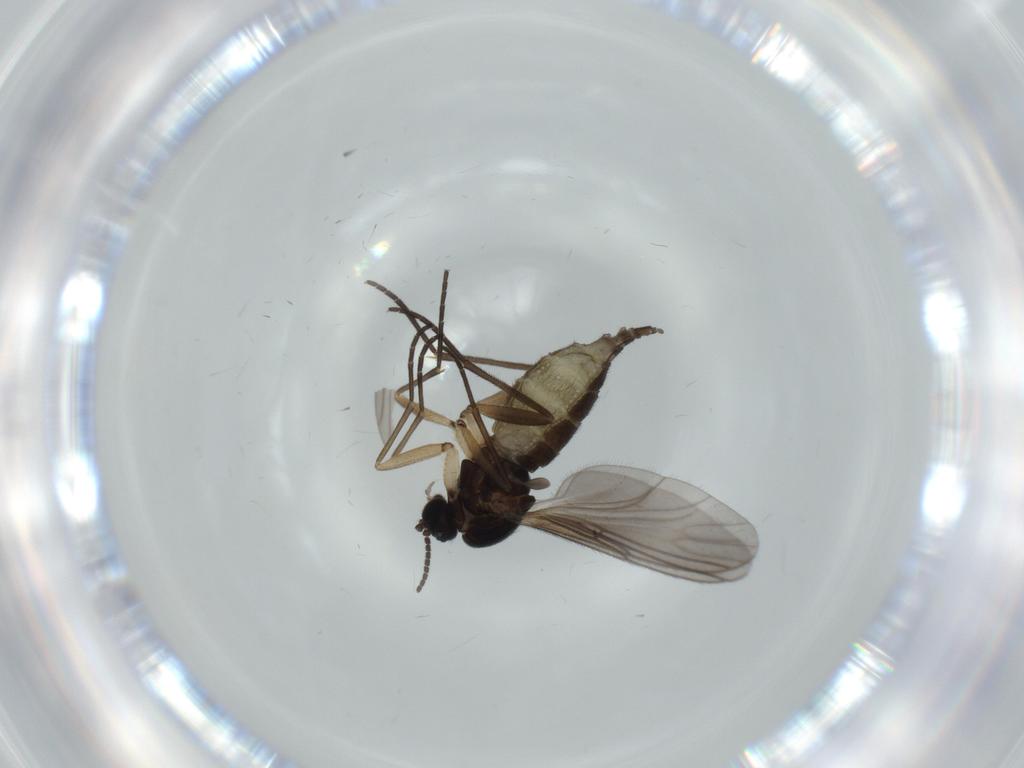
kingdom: Animalia
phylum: Arthropoda
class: Insecta
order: Diptera
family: Sciaridae
